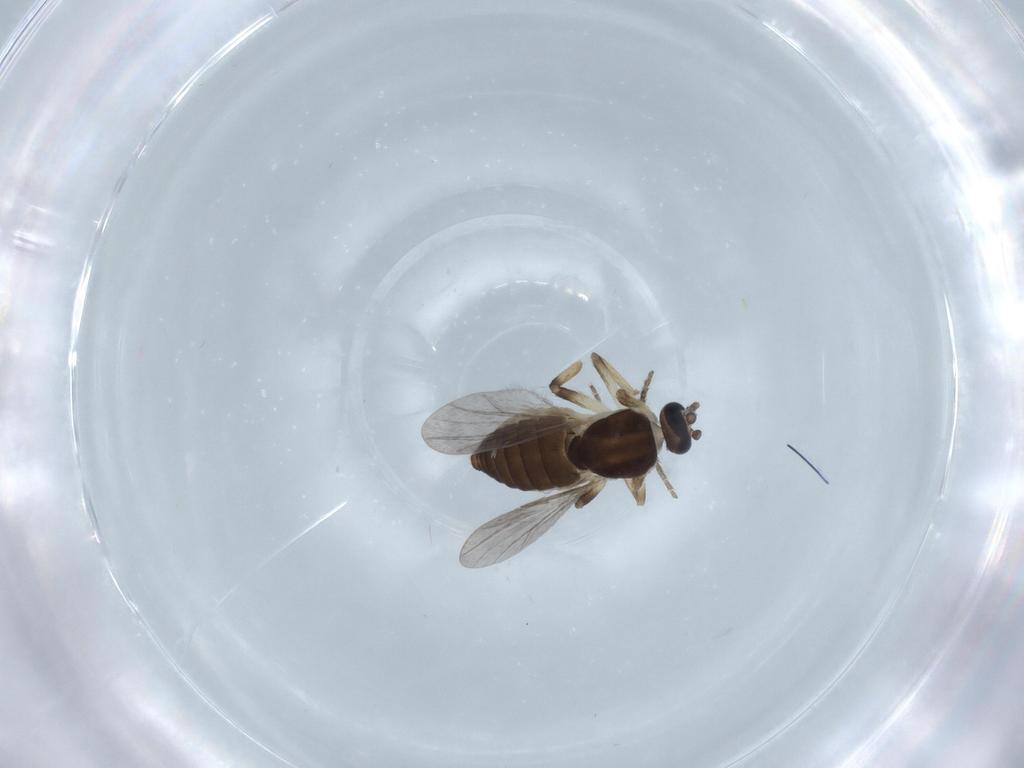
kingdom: Animalia
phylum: Arthropoda
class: Insecta
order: Diptera
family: Ceratopogonidae
